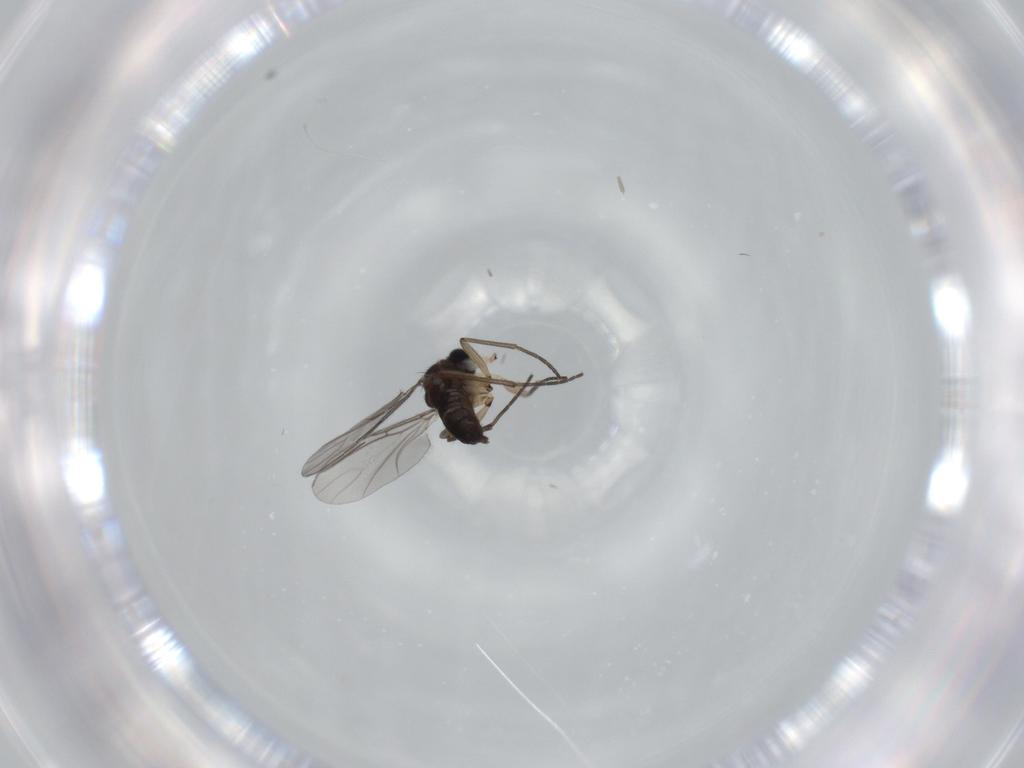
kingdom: Animalia
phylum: Arthropoda
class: Insecta
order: Diptera
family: Sciaridae
